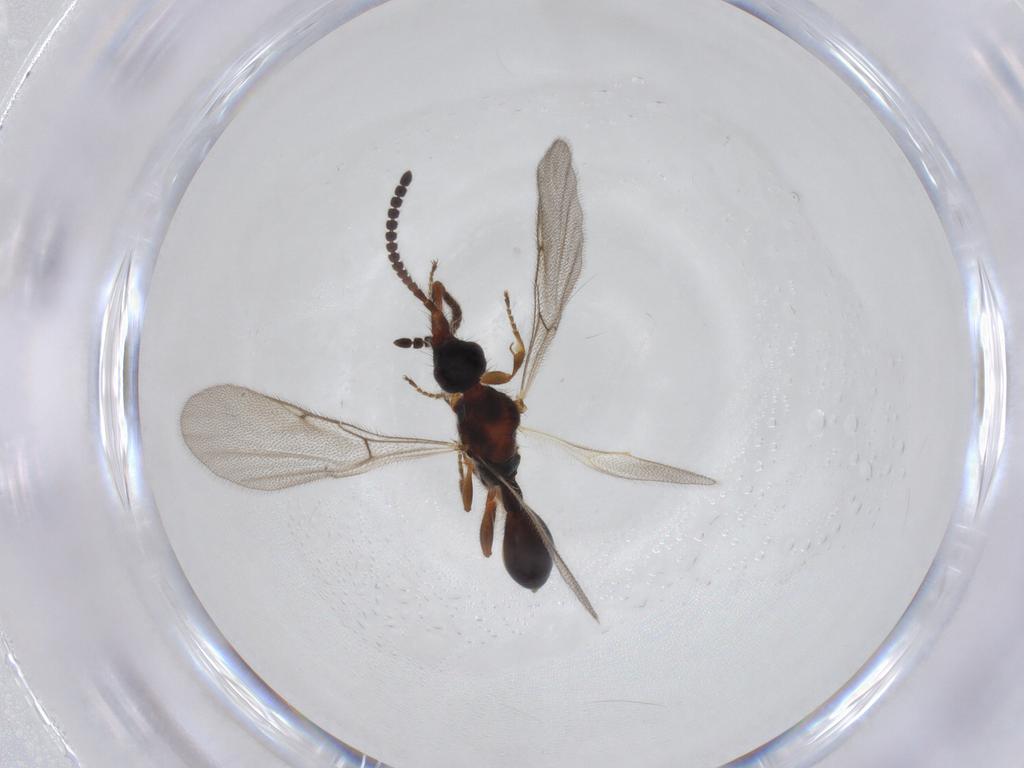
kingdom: Animalia
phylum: Arthropoda
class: Insecta
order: Hymenoptera
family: Diapriidae
